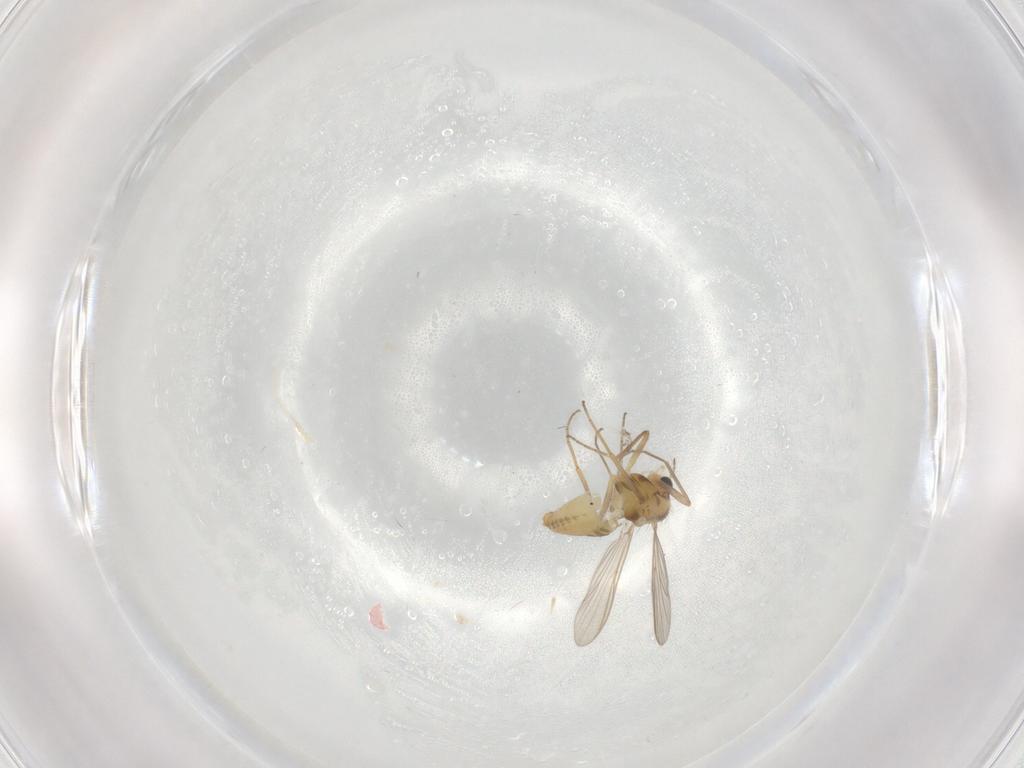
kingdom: Animalia
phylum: Arthropoda
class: Insecta
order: Diptera
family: Chironomidae
